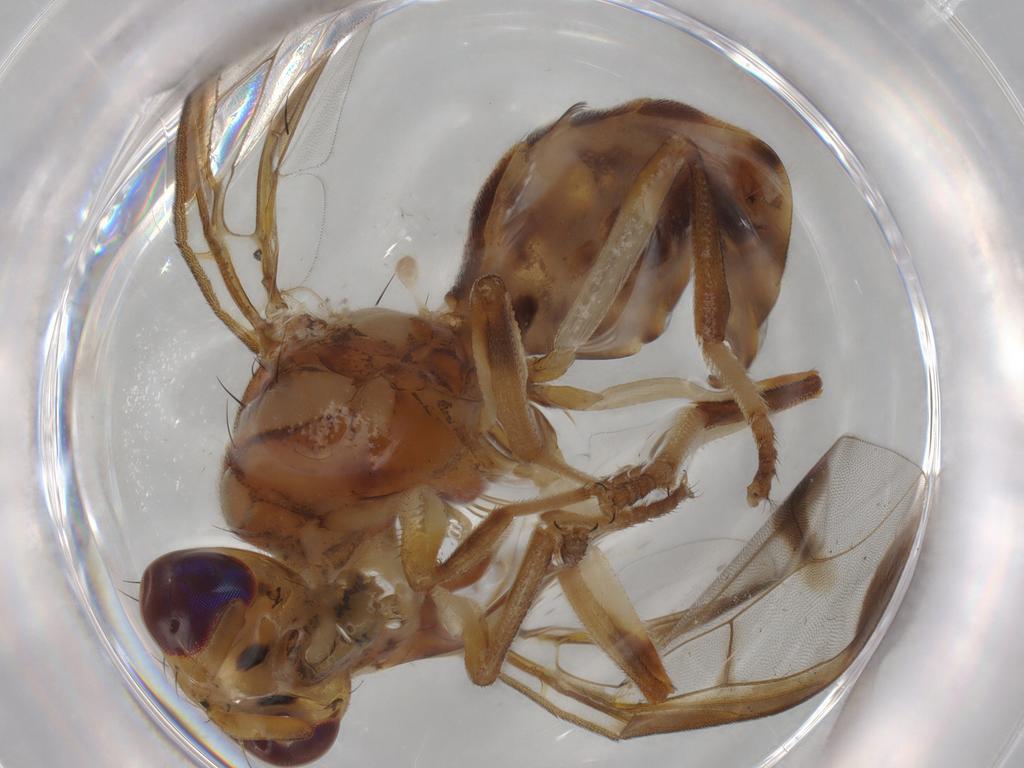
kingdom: Animalia
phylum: Arthropoda
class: Insecta
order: Diptera
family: Tephritidae
